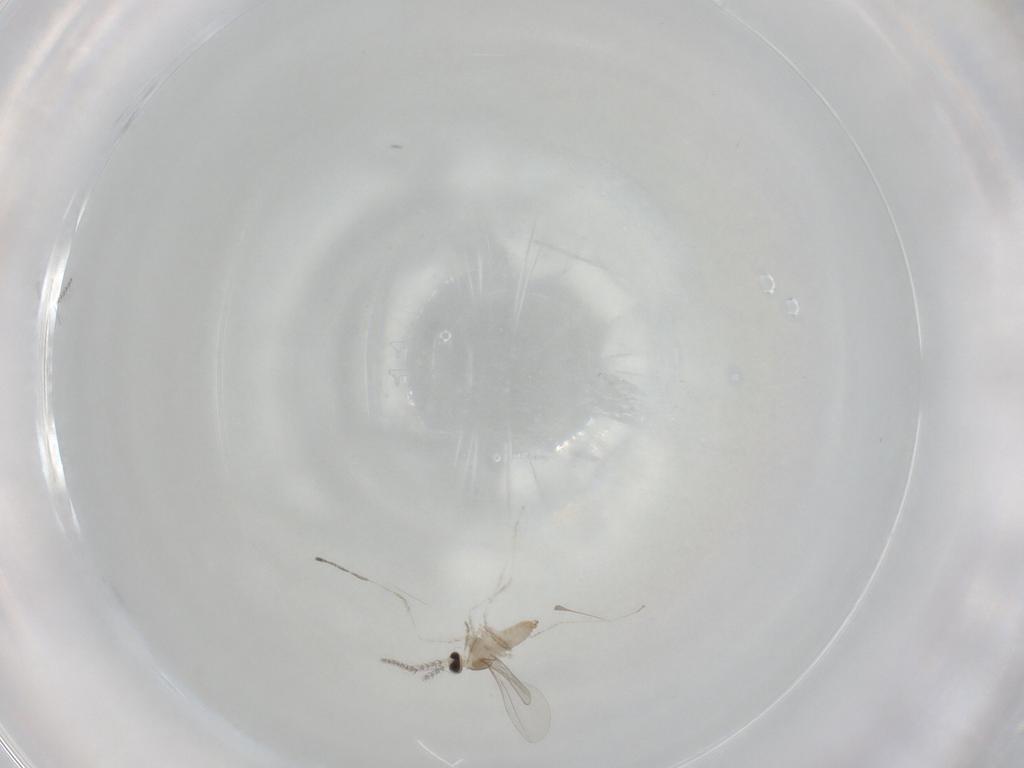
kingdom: Animalia
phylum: Arthropoda
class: Insecta
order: Diptera
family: Cecidomyiidae
